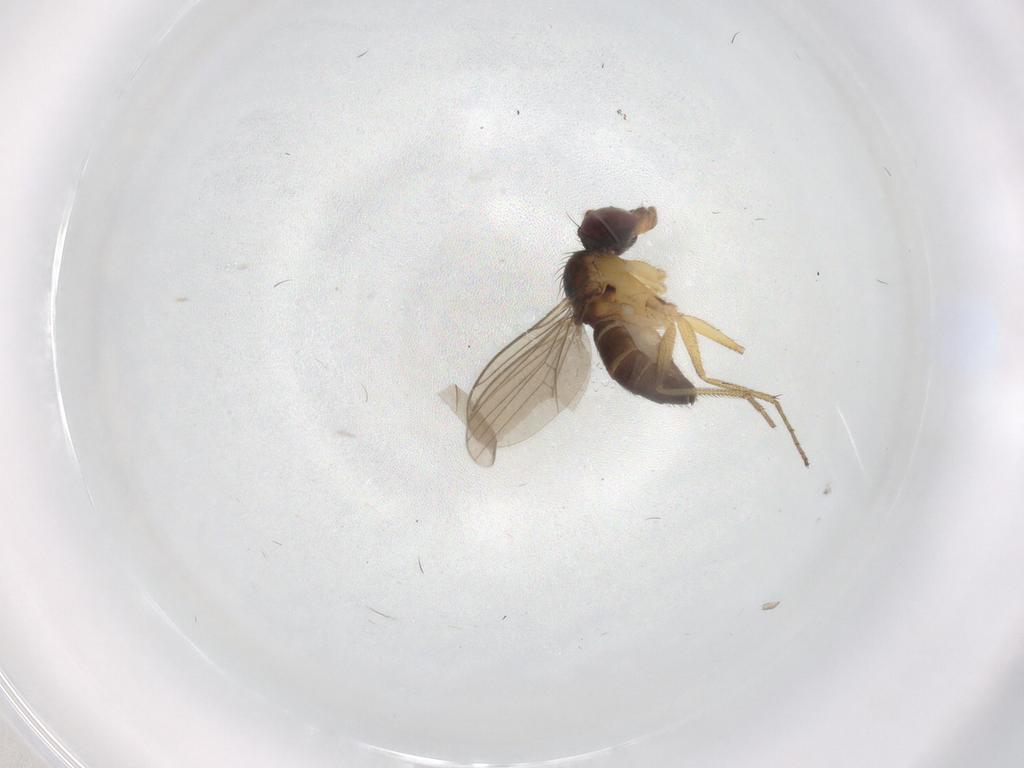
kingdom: Animalia
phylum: Arthropoda
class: Insecta
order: Diptera
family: Dolichopodidae
